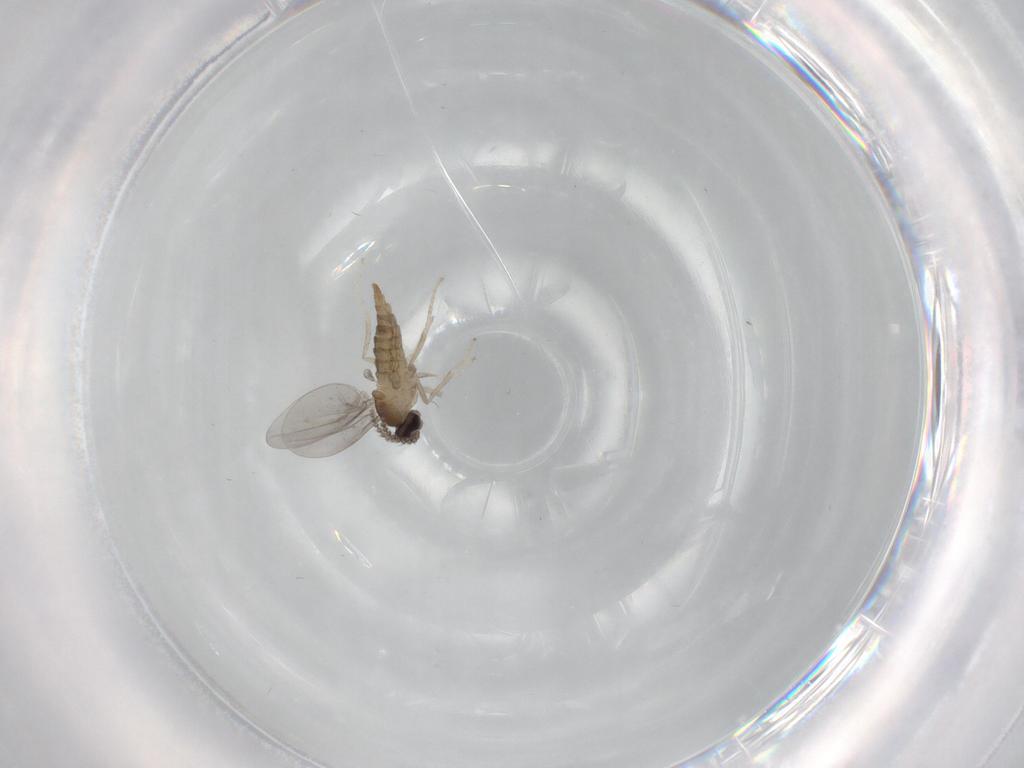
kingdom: Animalia
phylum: Arthropoda
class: Insecta
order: Diptera
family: Cecidomyiidae
